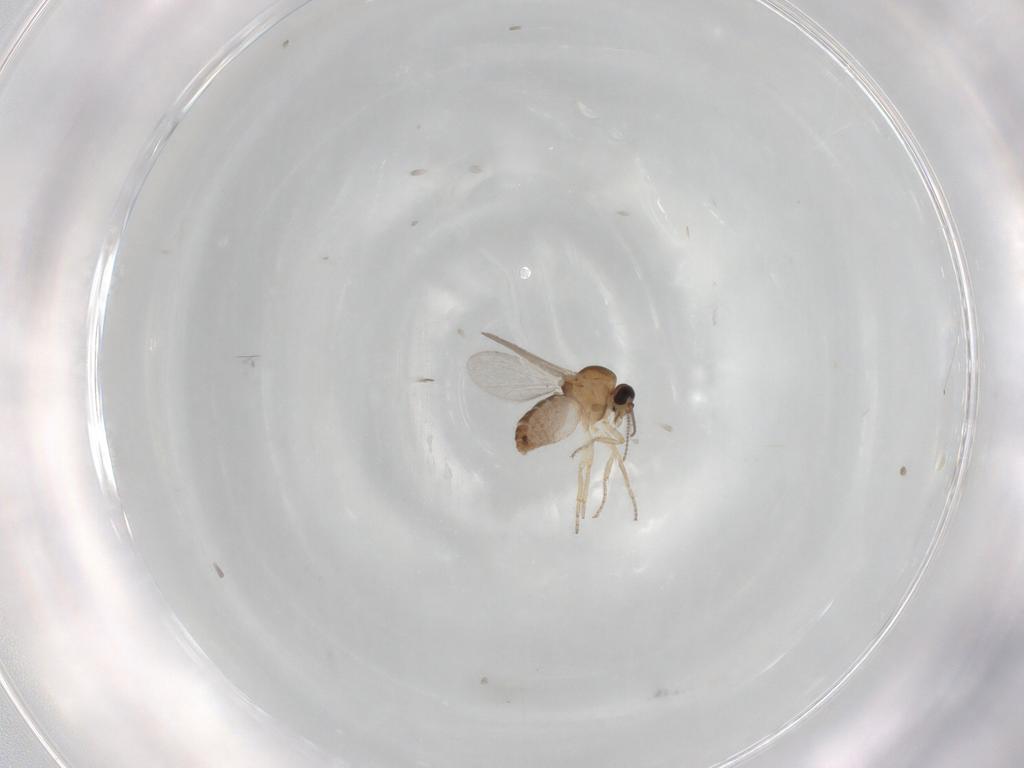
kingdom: Animalia
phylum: Arthropoda
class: Insecta
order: Diptera
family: Ceratopogonidae
